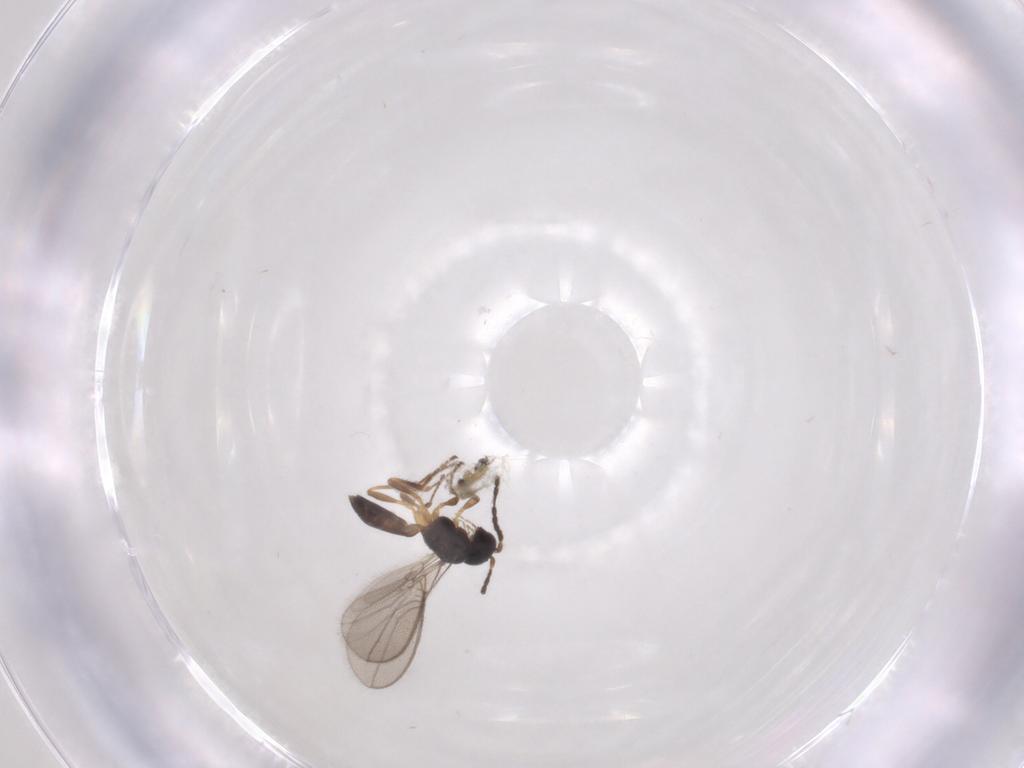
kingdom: Animalia
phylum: Arthropoda
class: Insecta
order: Hymenoptera
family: Braconidae
